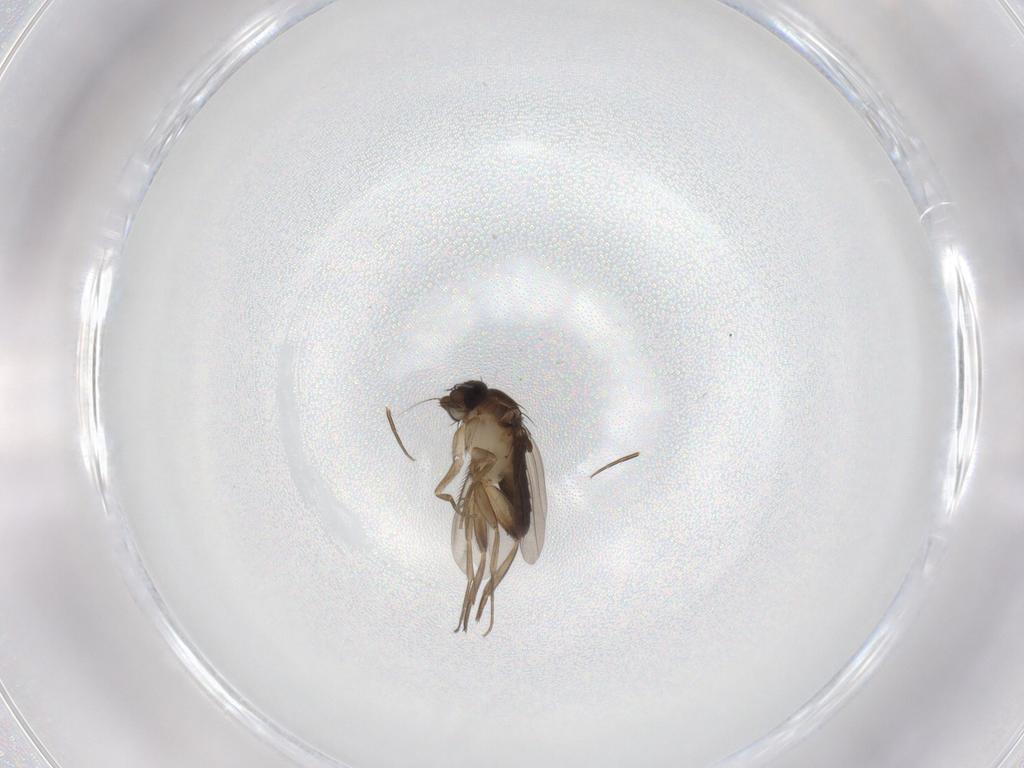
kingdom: Animalia
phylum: Arthropoda
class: Insecta
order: Diptera
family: Phoridae
